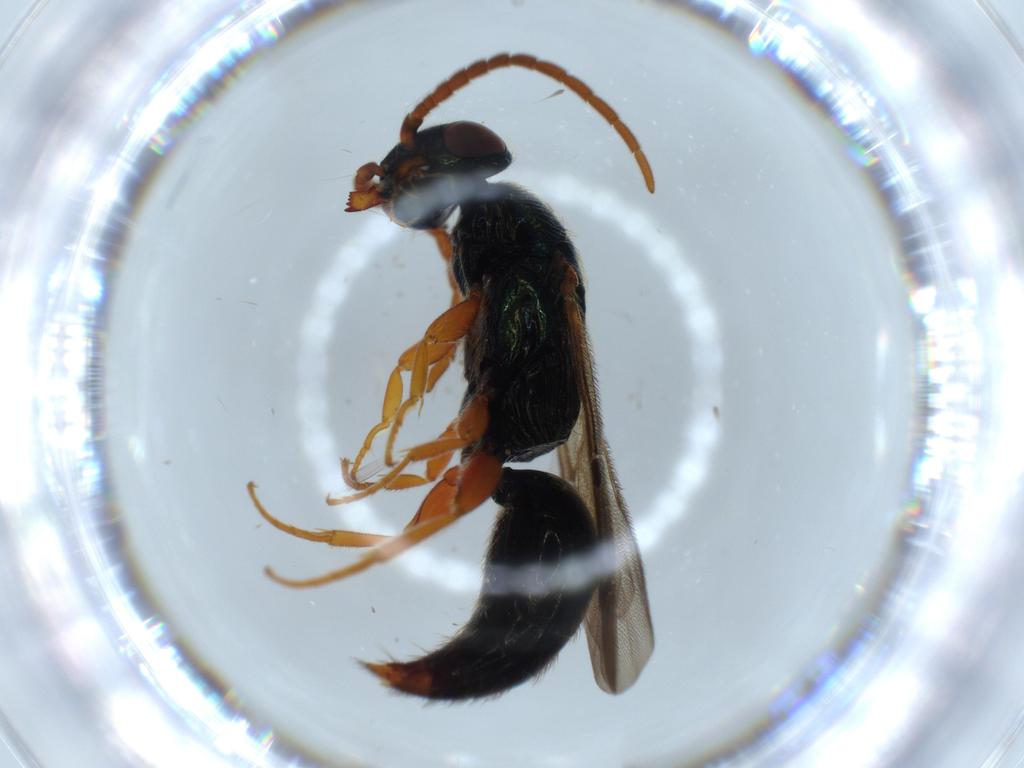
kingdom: Animalia
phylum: Arthropoda
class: Insecta
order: Hymenoptera
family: Bethylidae
